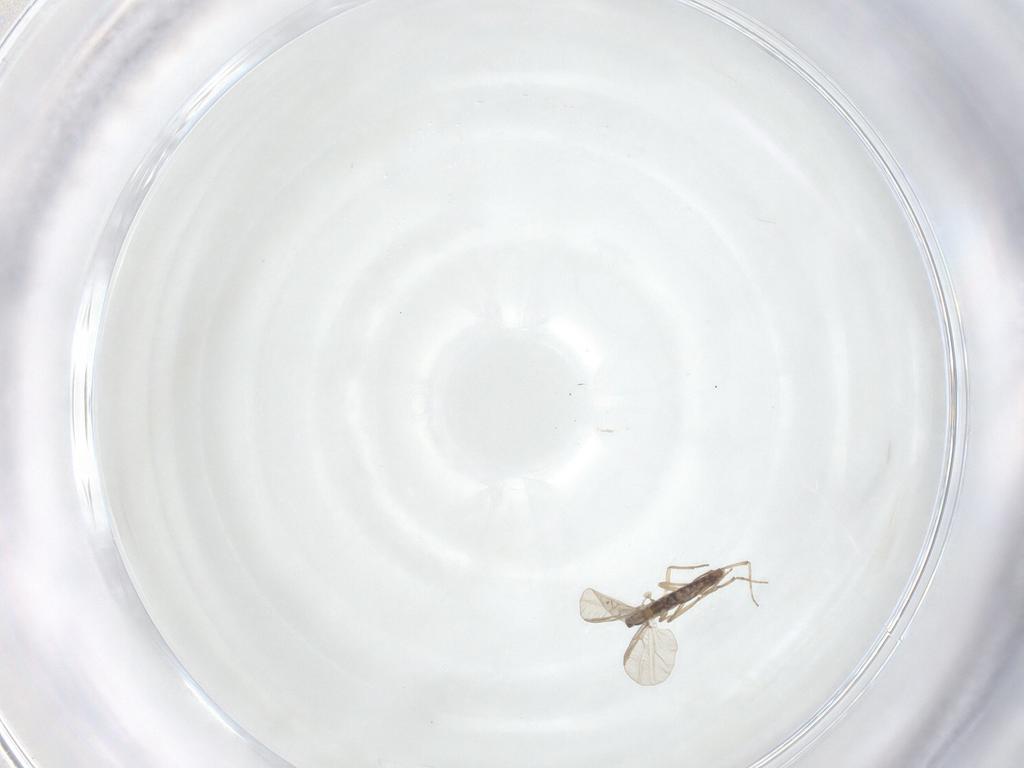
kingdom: Animalia
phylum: Arthropoda
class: Insecta
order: Diptera
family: Chironomidae
